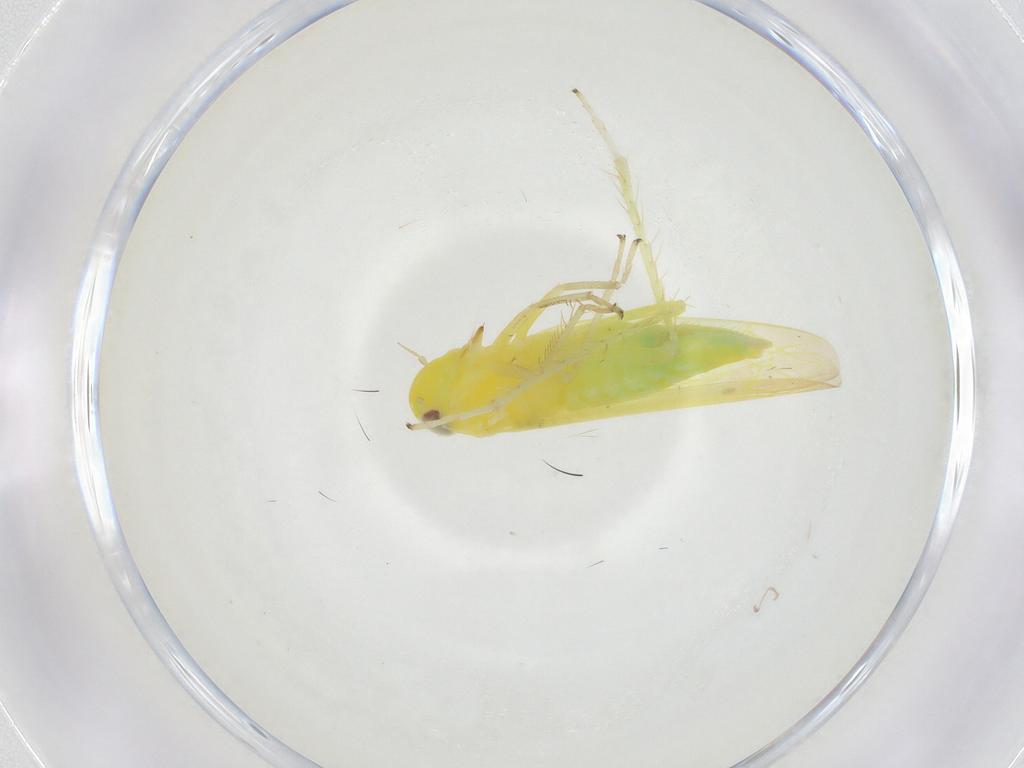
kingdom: Animalia
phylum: Arthropoda
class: Insecta
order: Hemiptera
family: Cicadellidae
